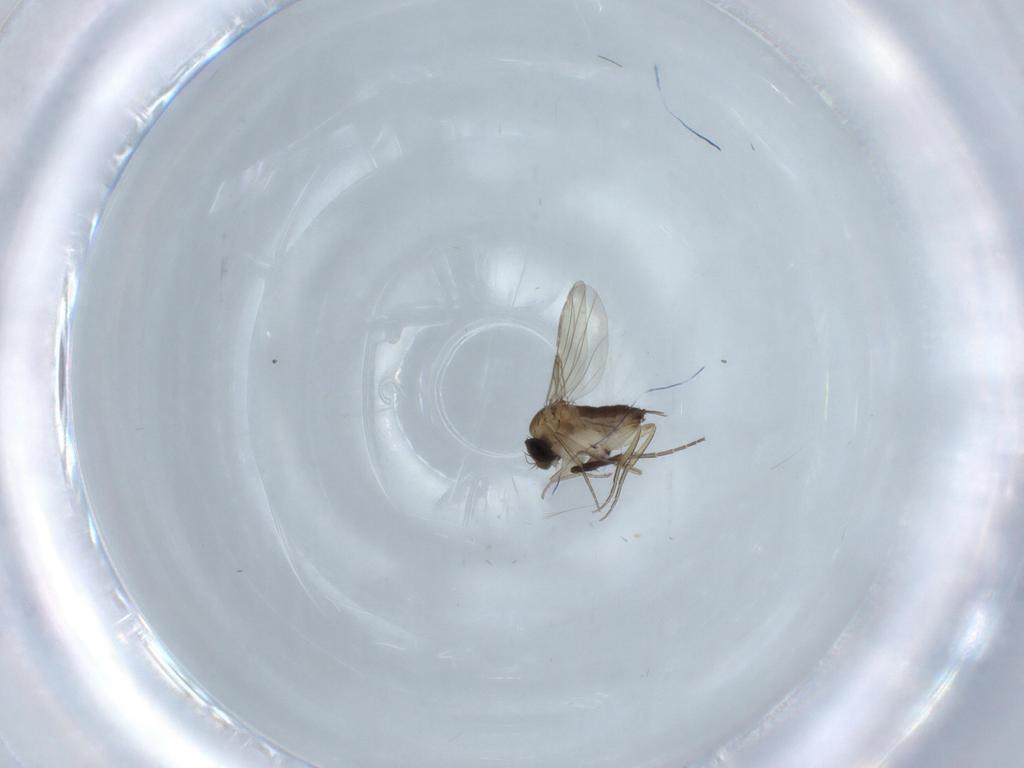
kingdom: Animalia
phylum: Arthropoda
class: Insecta
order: Diptera
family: Phoridae
